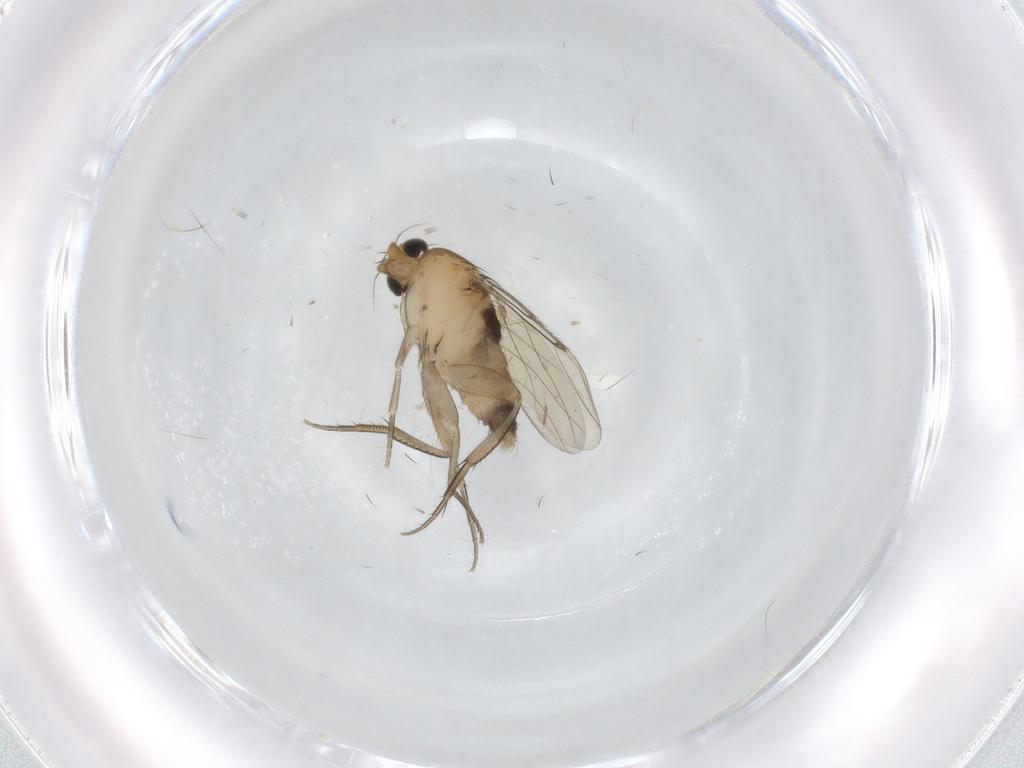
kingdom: Animalia
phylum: Arthropoda
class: Insecta
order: Diptera
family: Phoridae
